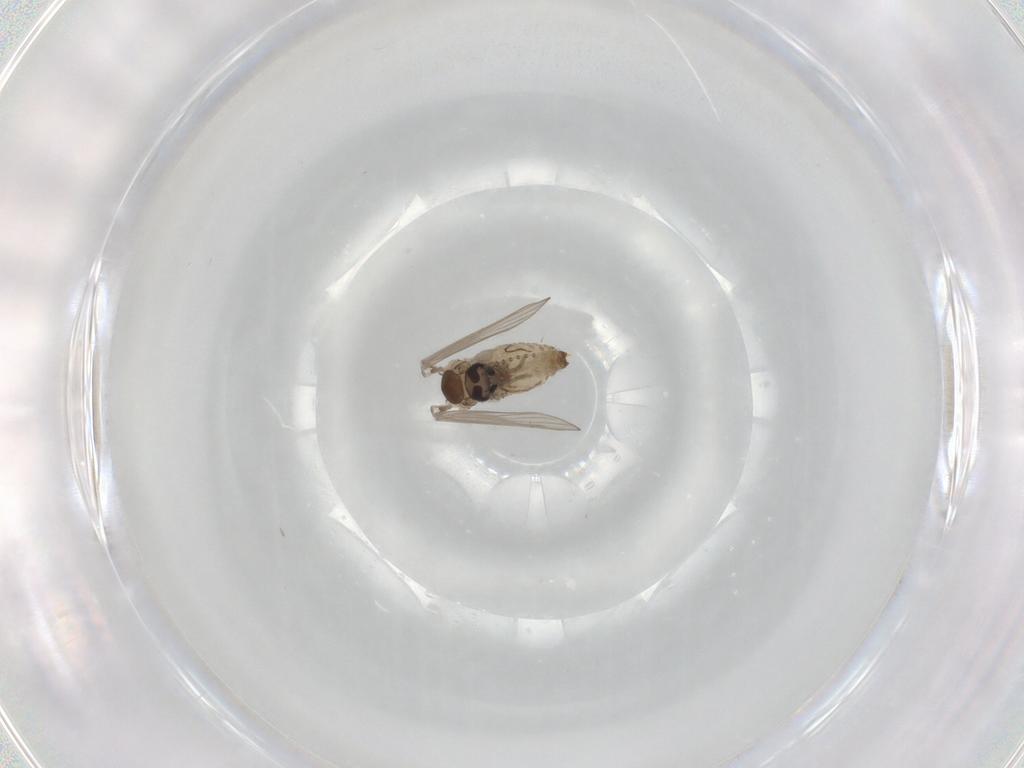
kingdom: Animalia
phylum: Arthropoda
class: Insecta
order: Diptera
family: Psychodidae
